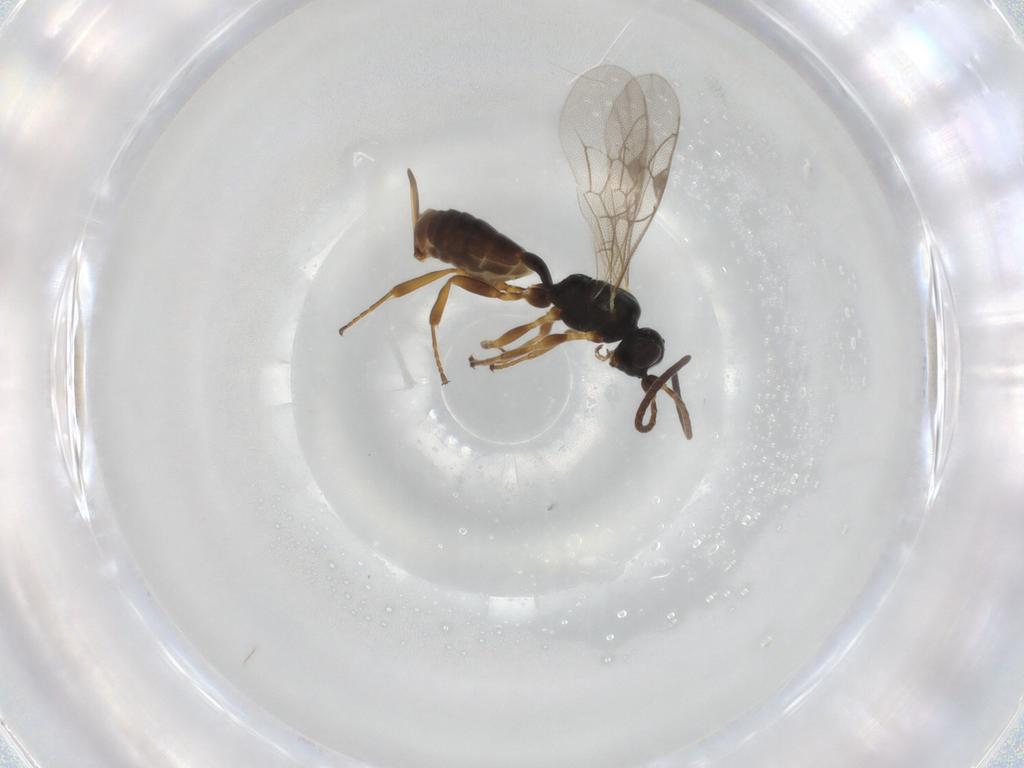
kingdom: Animalia
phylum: Arthropoda
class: Insecta
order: Hymenoptera
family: Ichneumonidae
